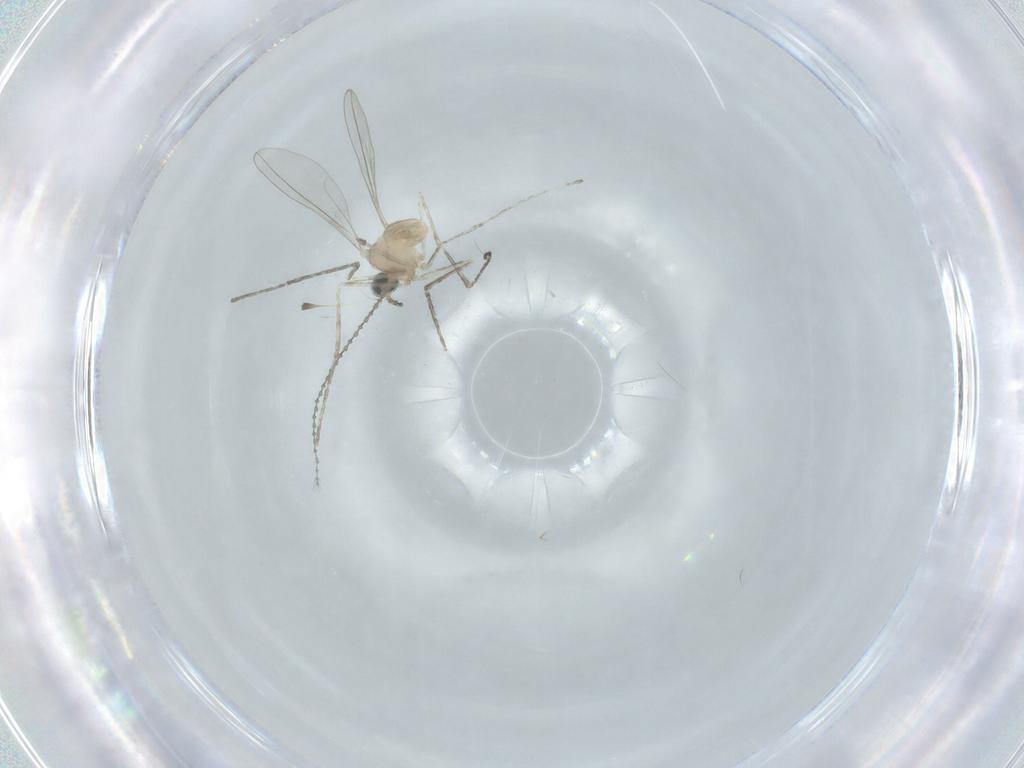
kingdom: Animalia
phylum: Arthropoda
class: Insecta
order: Diptera
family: Cecidomyiidae
